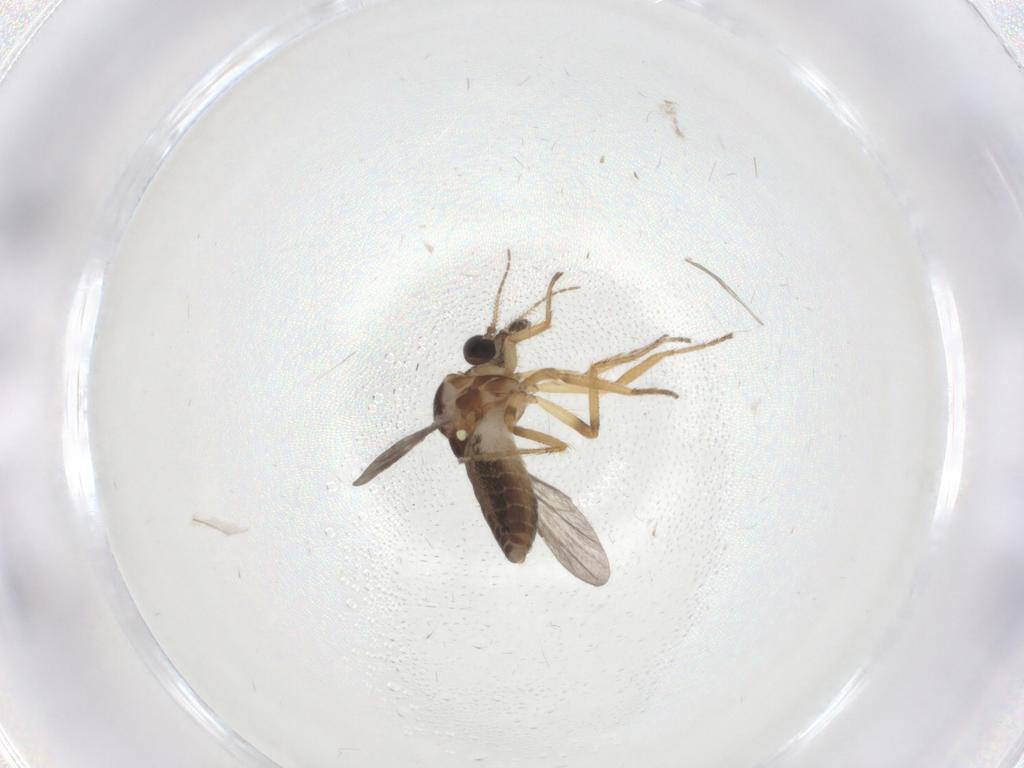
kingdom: Animalia
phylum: Arthropoda
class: Insecta
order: Diptera
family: Ceratopogonidae
